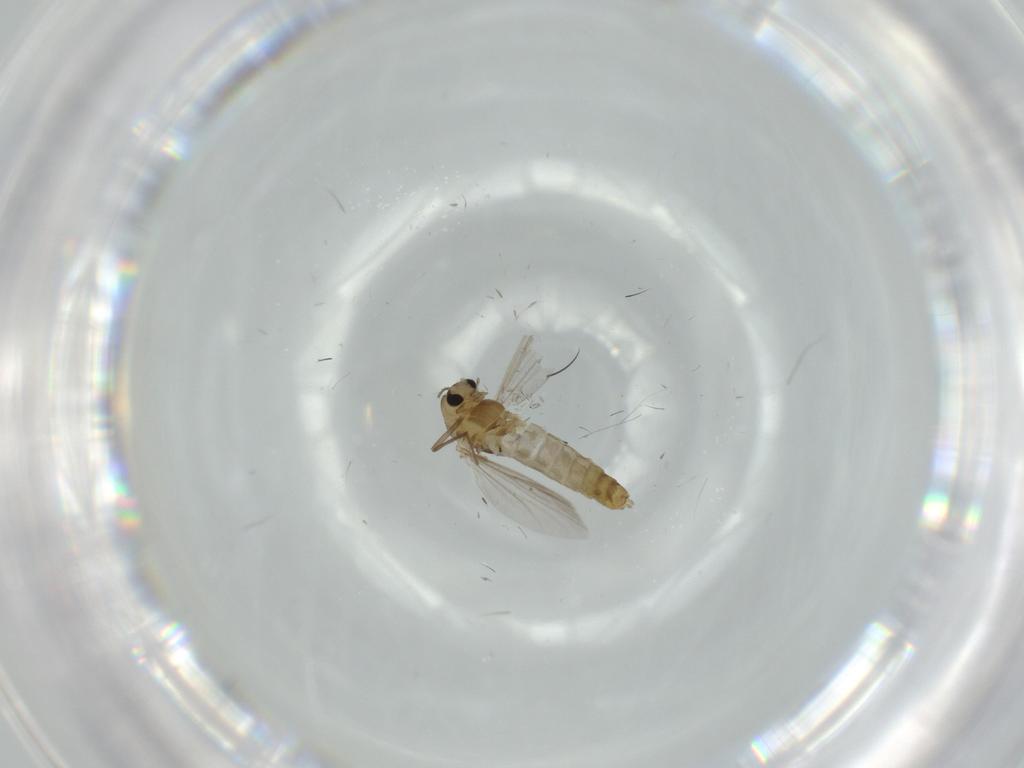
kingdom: Animalia
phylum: Arthropoda
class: Insecta
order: Diptera
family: Chironomidae
